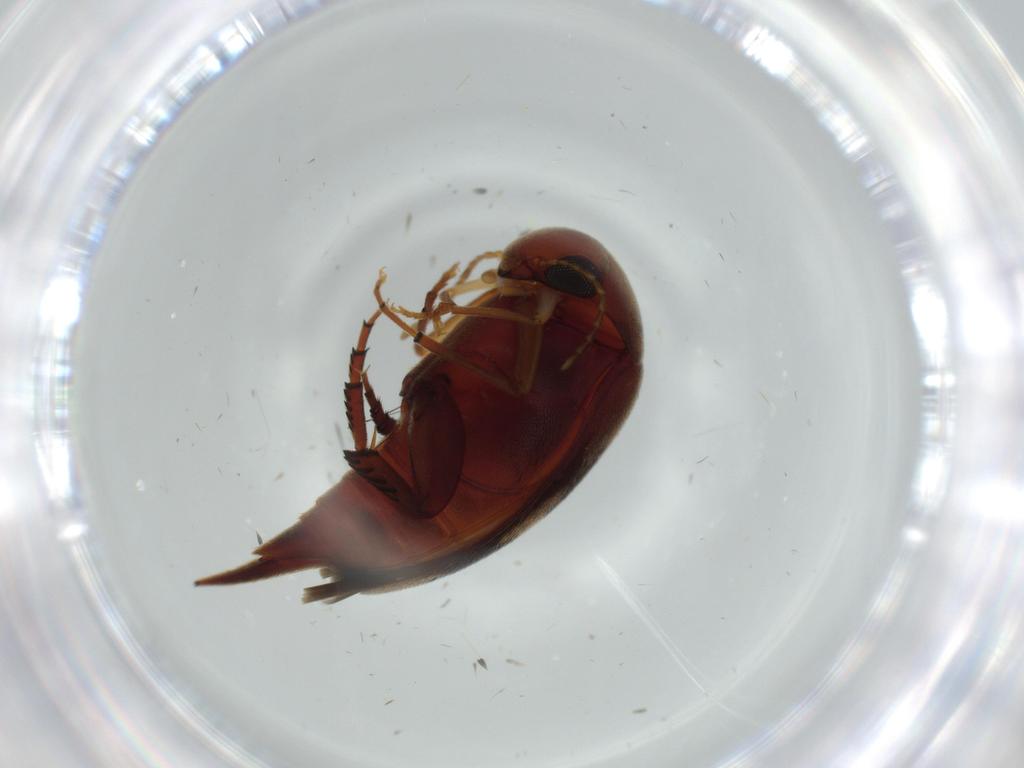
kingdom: Animalia
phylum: Arthropoda
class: Insecta
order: Coleoptera
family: Mordellidae
